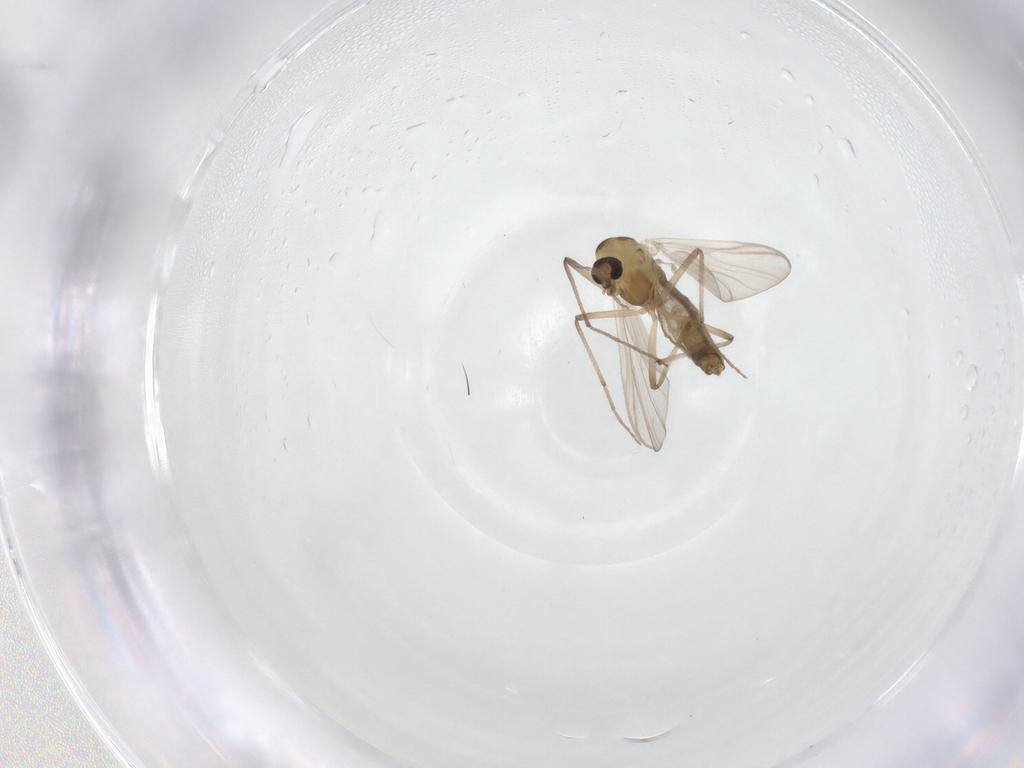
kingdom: Animalia
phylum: Arthropoda
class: Insecta
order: Diptera
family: Chironomidae
